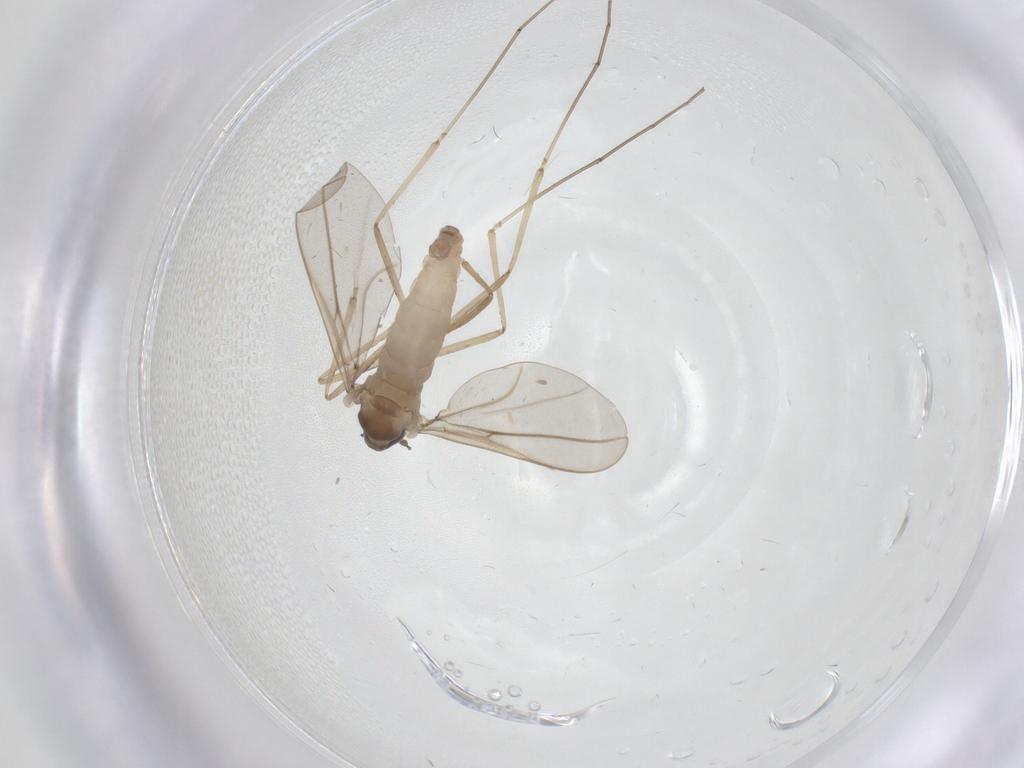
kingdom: Animalia
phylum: Arthropoda
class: Insecta
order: Diptera
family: Cecidomyiidae
